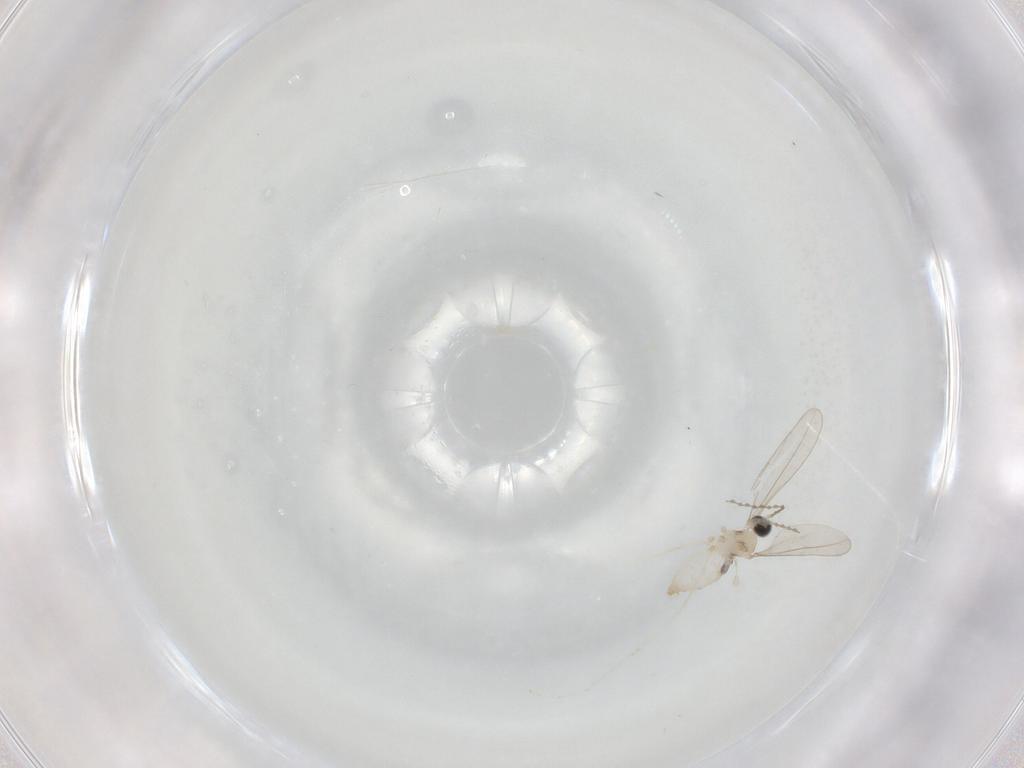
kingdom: Animalia
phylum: Arthropoda
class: Insecta
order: Diptera
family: Cecidomyiidae
